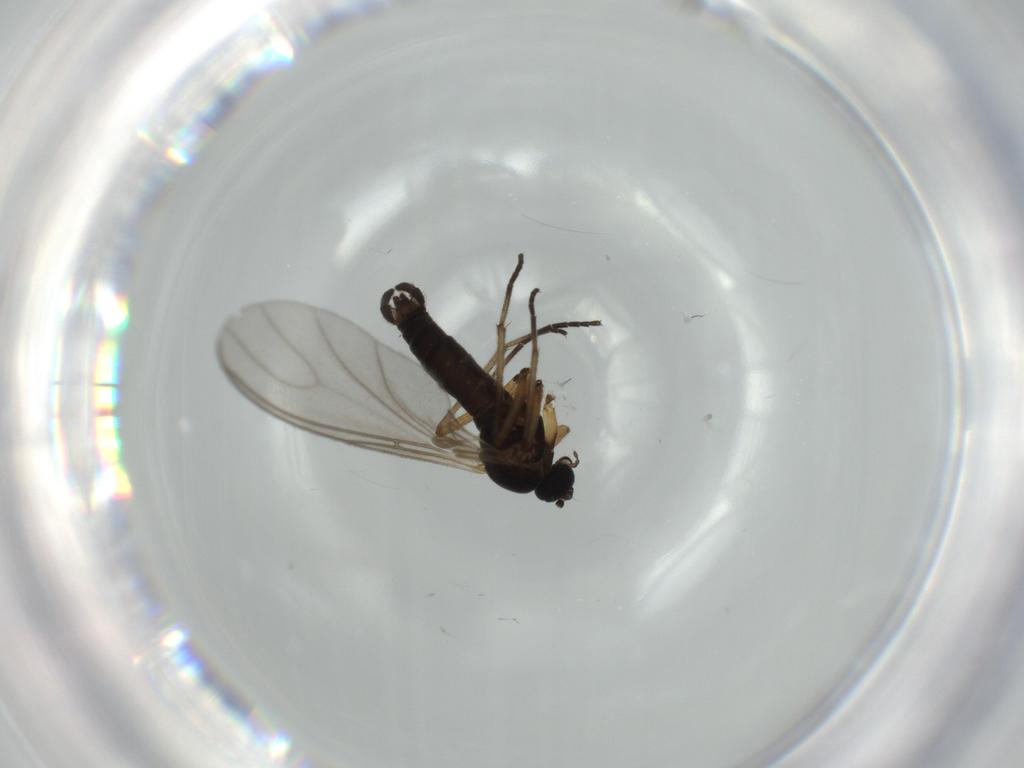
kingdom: Animalia
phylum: Arthropoda
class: Insecta
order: Diptera
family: Sciaridae
